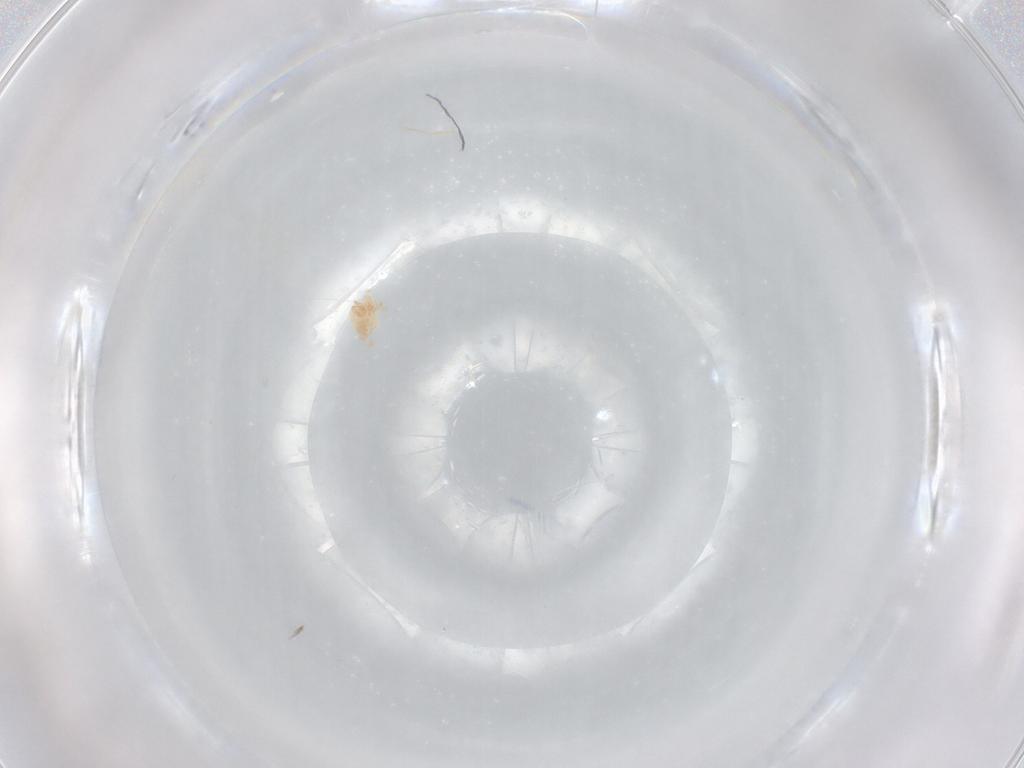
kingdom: Animalia
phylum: Arthropoda
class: Arachnida
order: Trombidiformes
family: Cunaxidae
